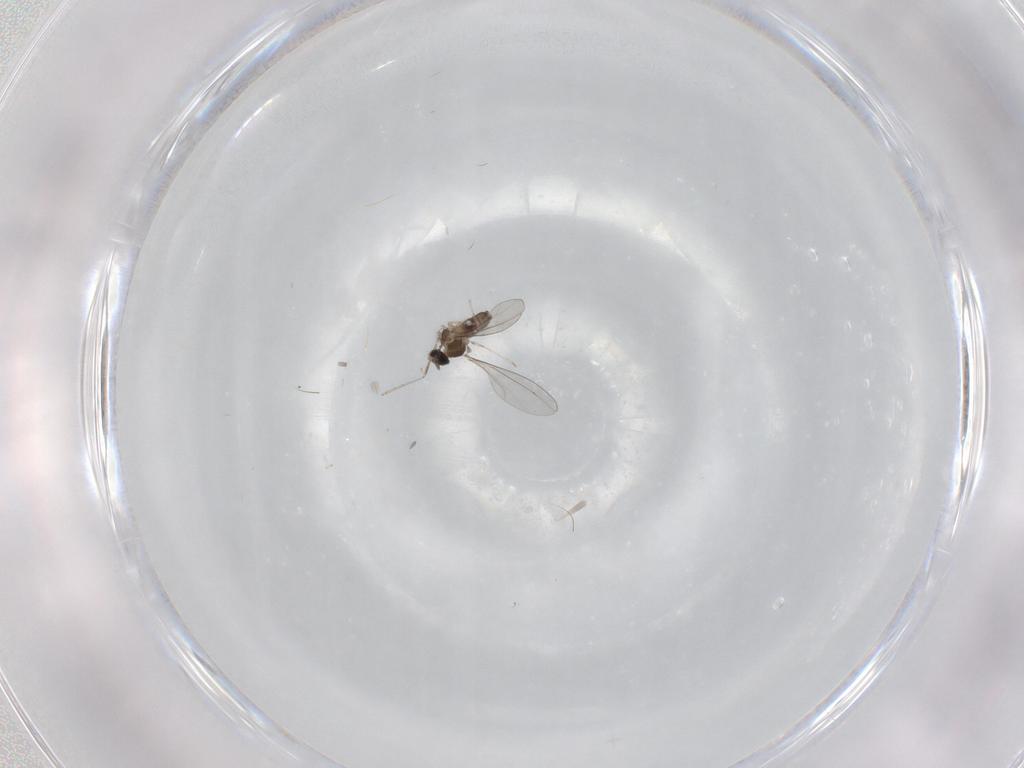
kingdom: Animalia
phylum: Arthropoda
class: Insecta
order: Diptera
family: Cecidomyiidae
